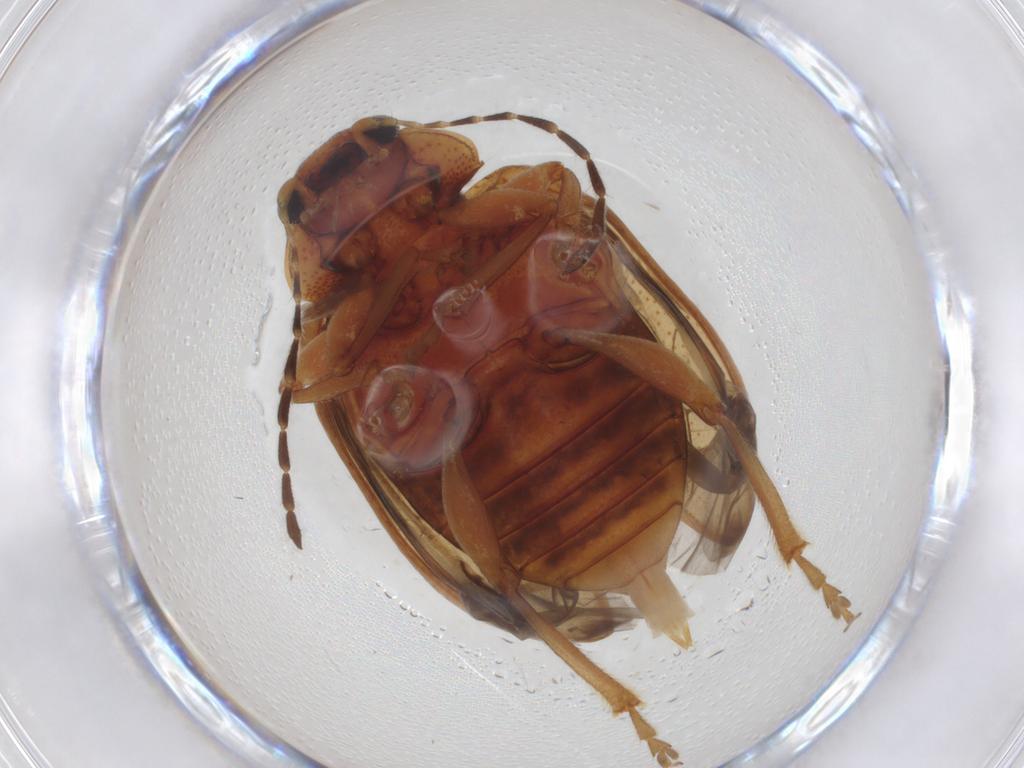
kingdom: Animalia
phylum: Arthropoda
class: Insecta
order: Coleoptera
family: Chrysomelidae
